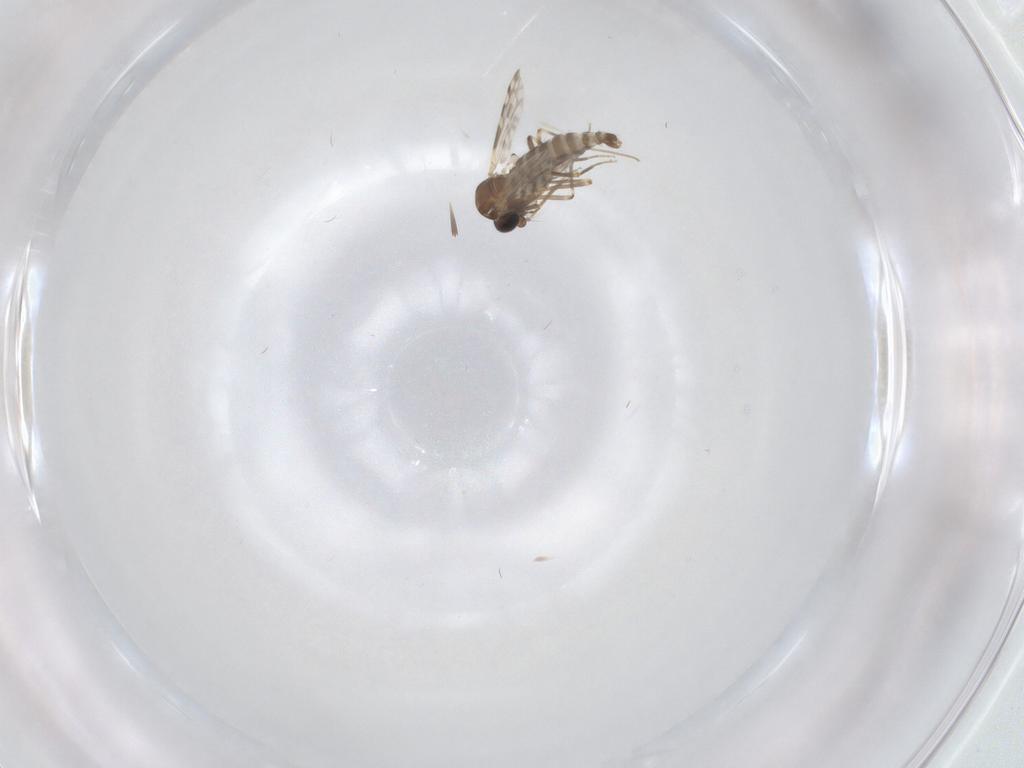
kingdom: Animalia
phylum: Arthropoda
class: Insecta
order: Diptera
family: Ceratopogonidae
